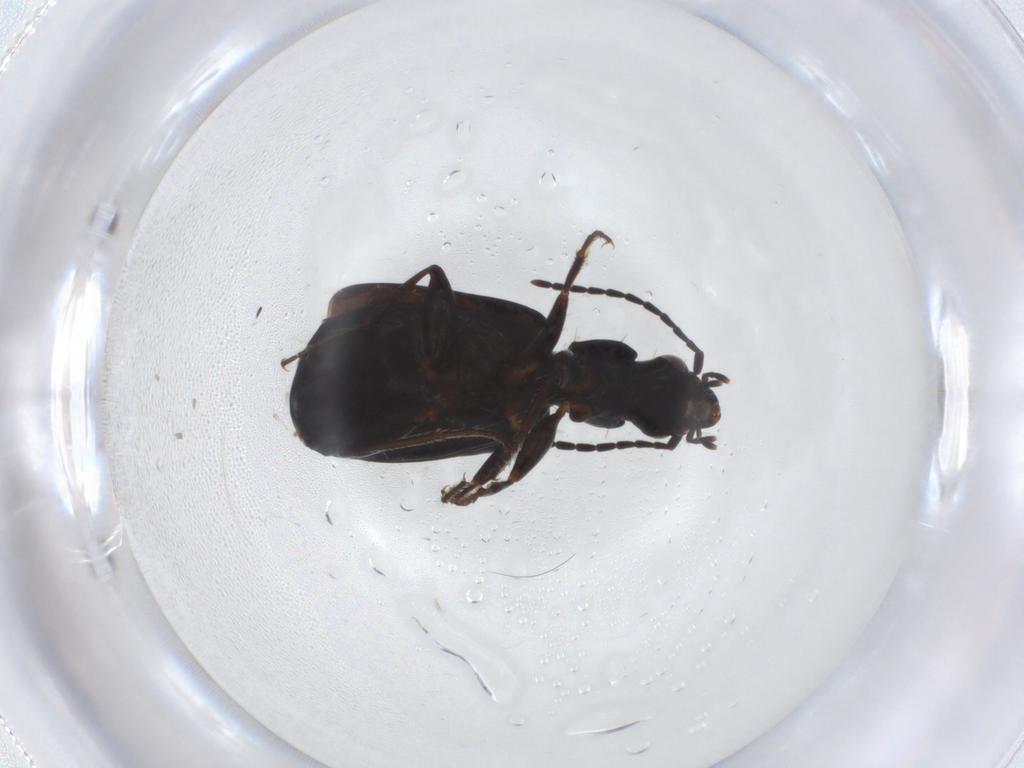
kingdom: Animalia
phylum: Arthropoda
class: Insecta
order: Coleoptera
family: Carabidae
